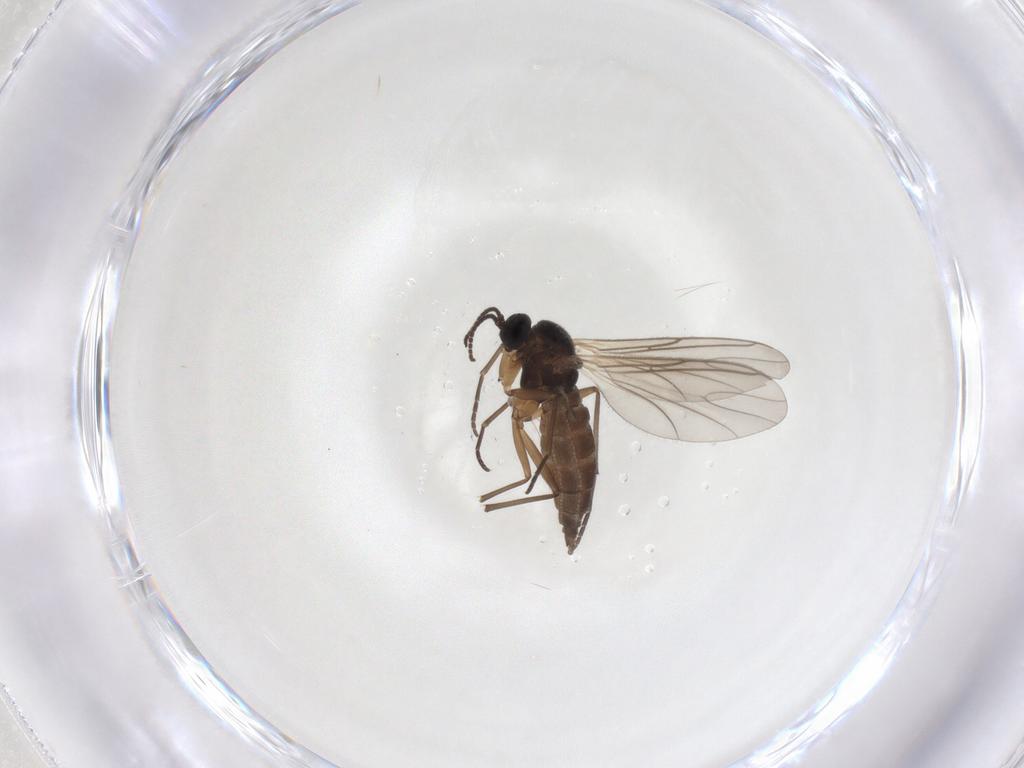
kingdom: Animalia
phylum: Arthropoda
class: Insecta
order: Diptera
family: Sciaridae
